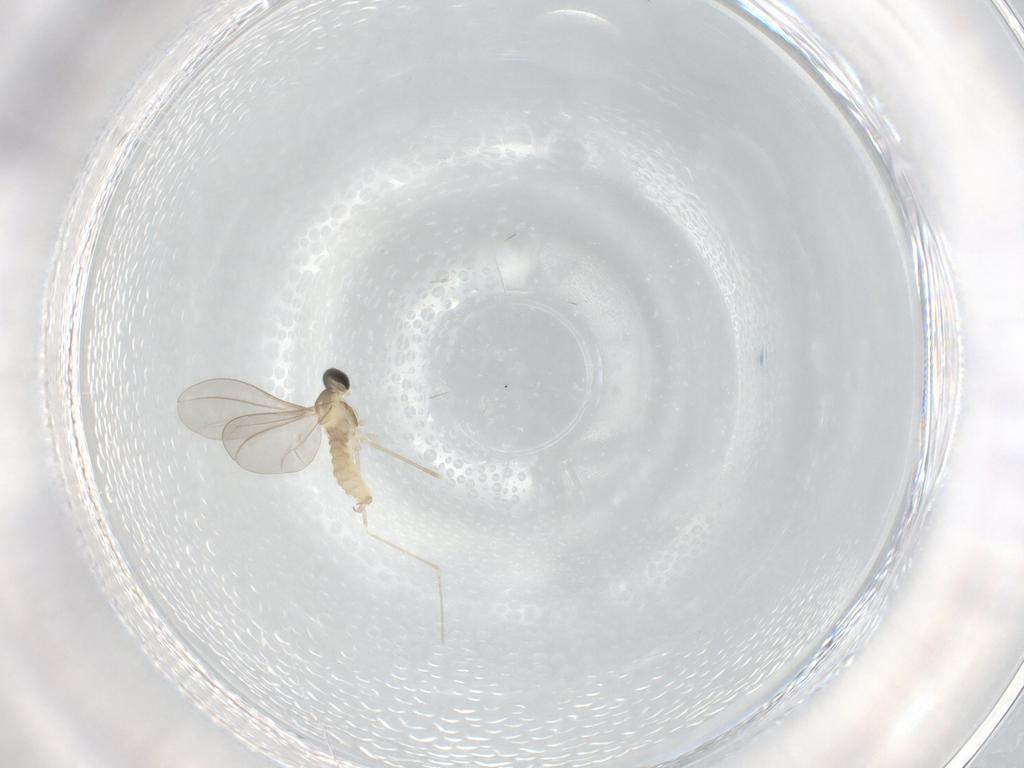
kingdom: Animalia
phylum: Arthropoda
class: Insecta
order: Diptera
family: Cecidomyiidae
